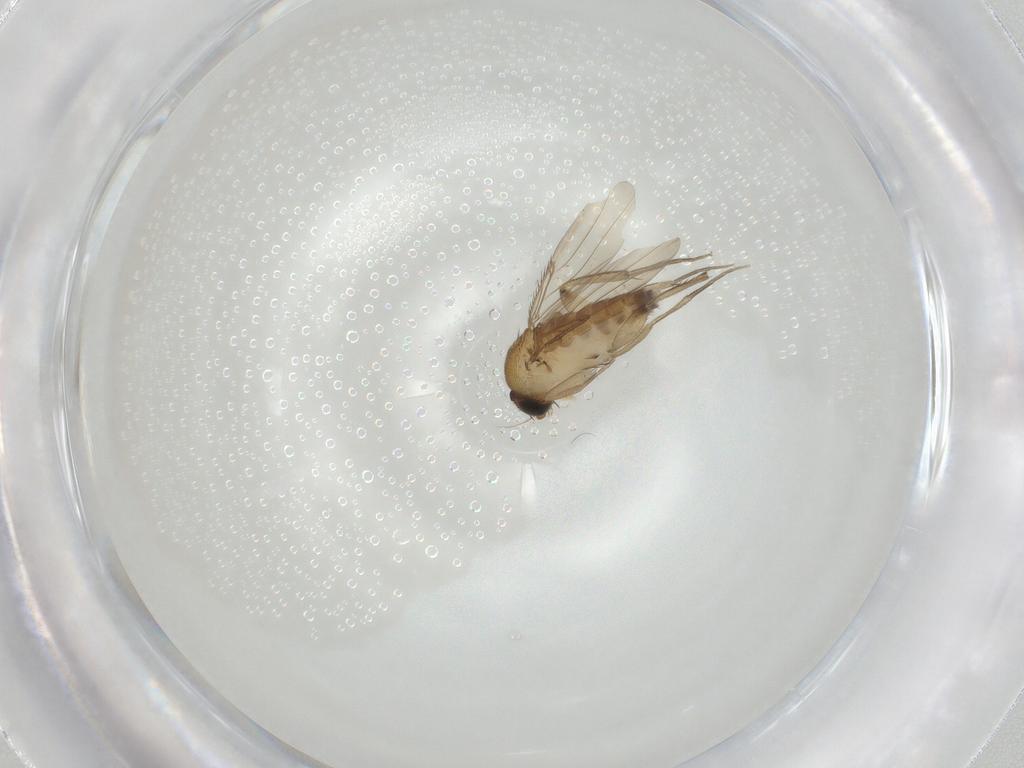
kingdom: Animalia
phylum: Arthropoda
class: Insecta
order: Diptera
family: Phoridae
